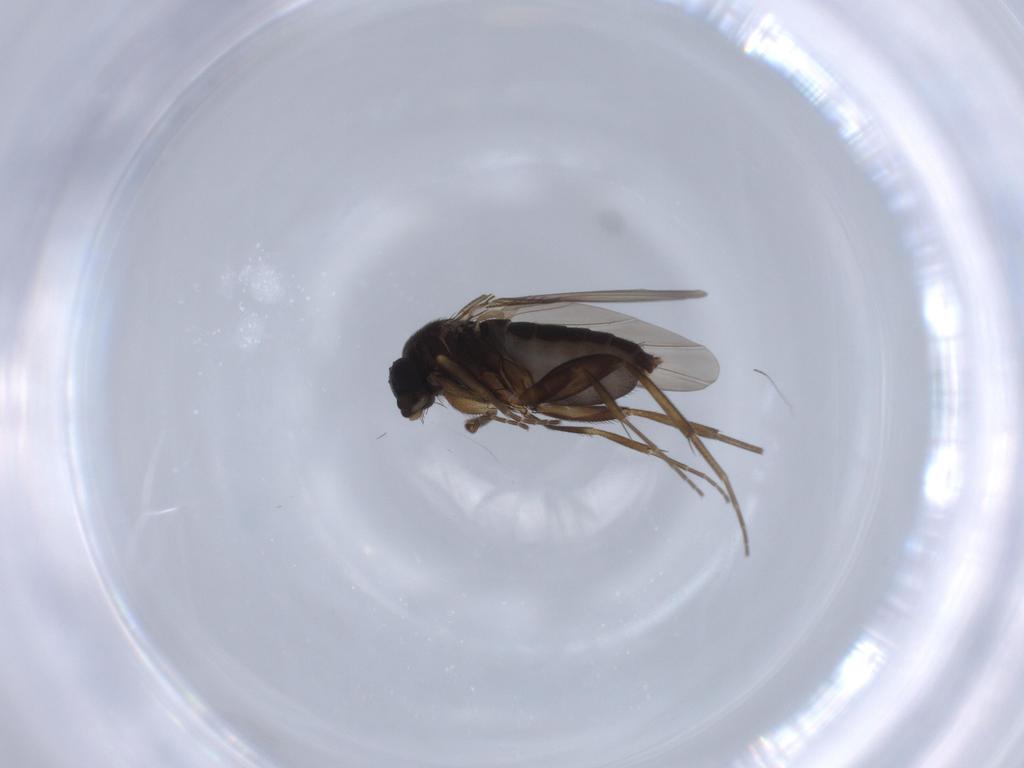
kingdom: Animalia
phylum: Arthropoda
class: Insecta
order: Diptera
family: Phoridae
